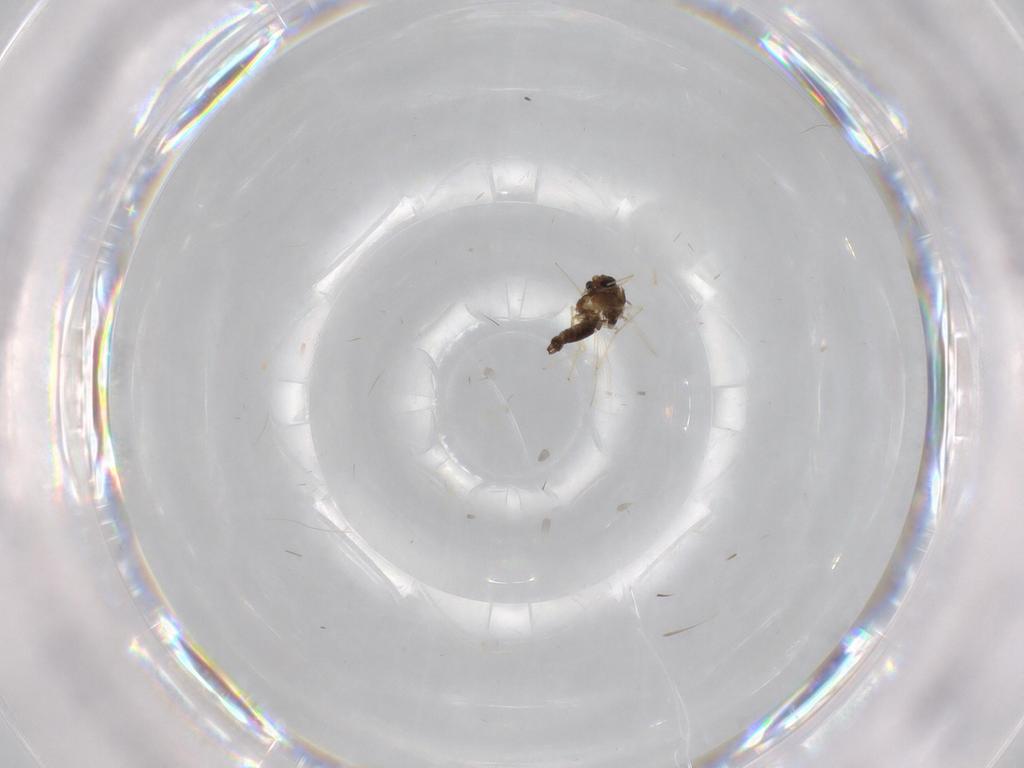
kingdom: Animalia
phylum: Arthropoda
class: Insecta
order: Diptera
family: Chironomidae
